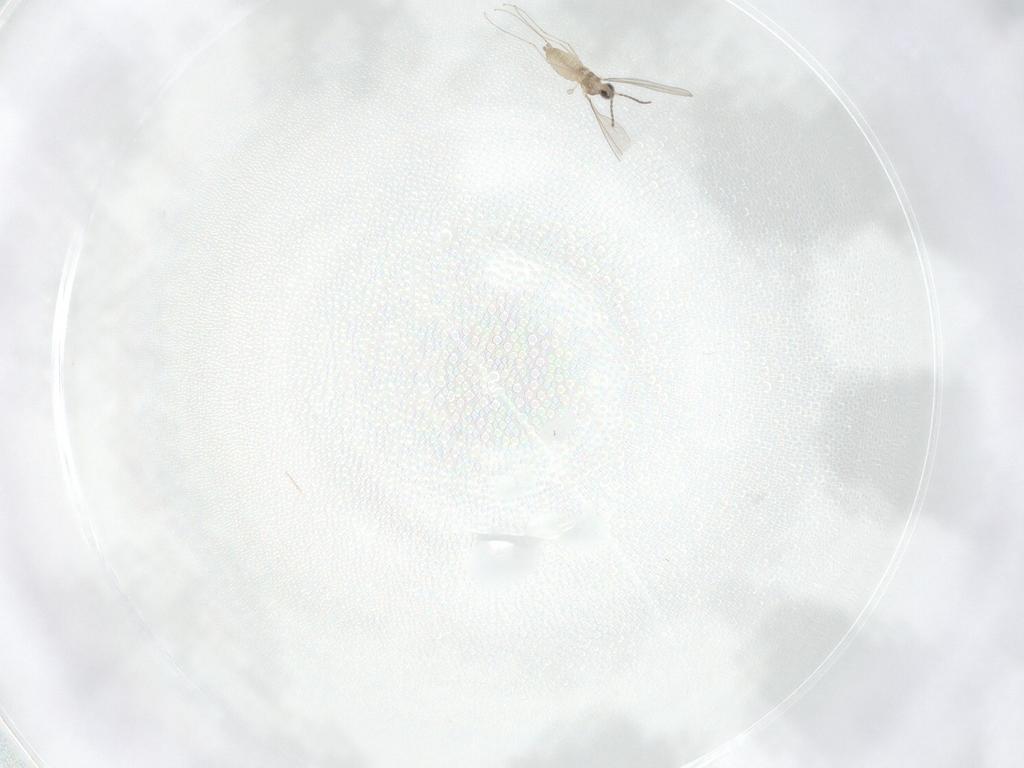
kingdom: Animalia
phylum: Arthropoda
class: Insecta
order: Diptera
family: Cecidomyiidae
